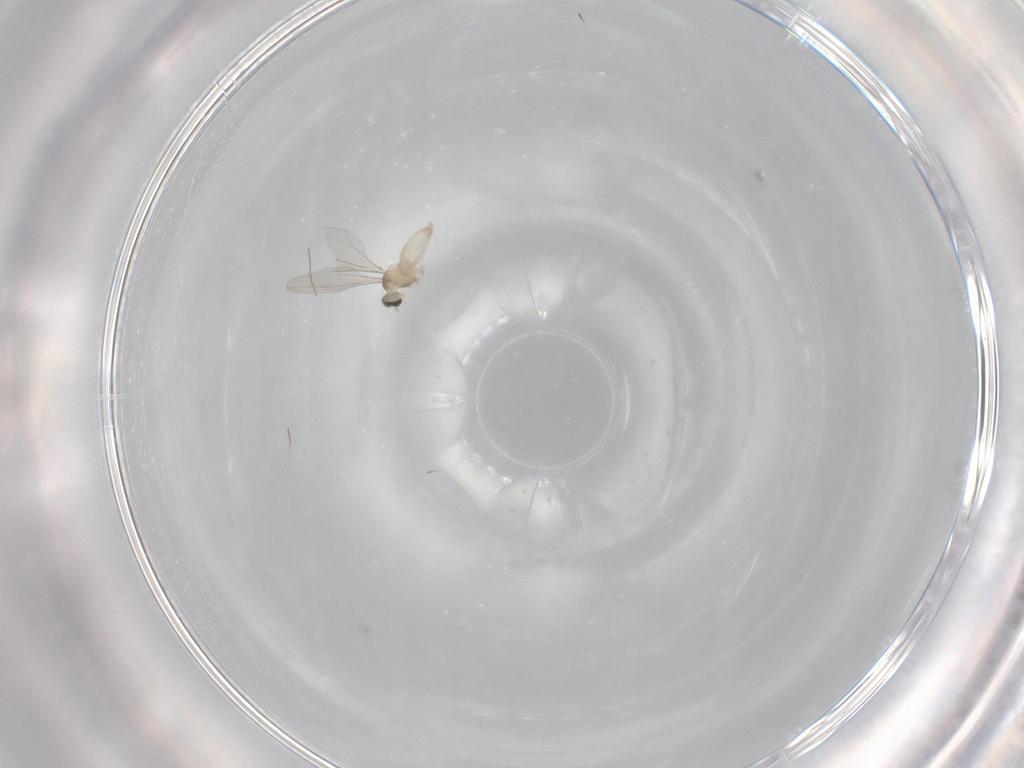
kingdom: Animalia
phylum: Arthropoda
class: Insecta
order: Diptera
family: Cecidomyiidae
